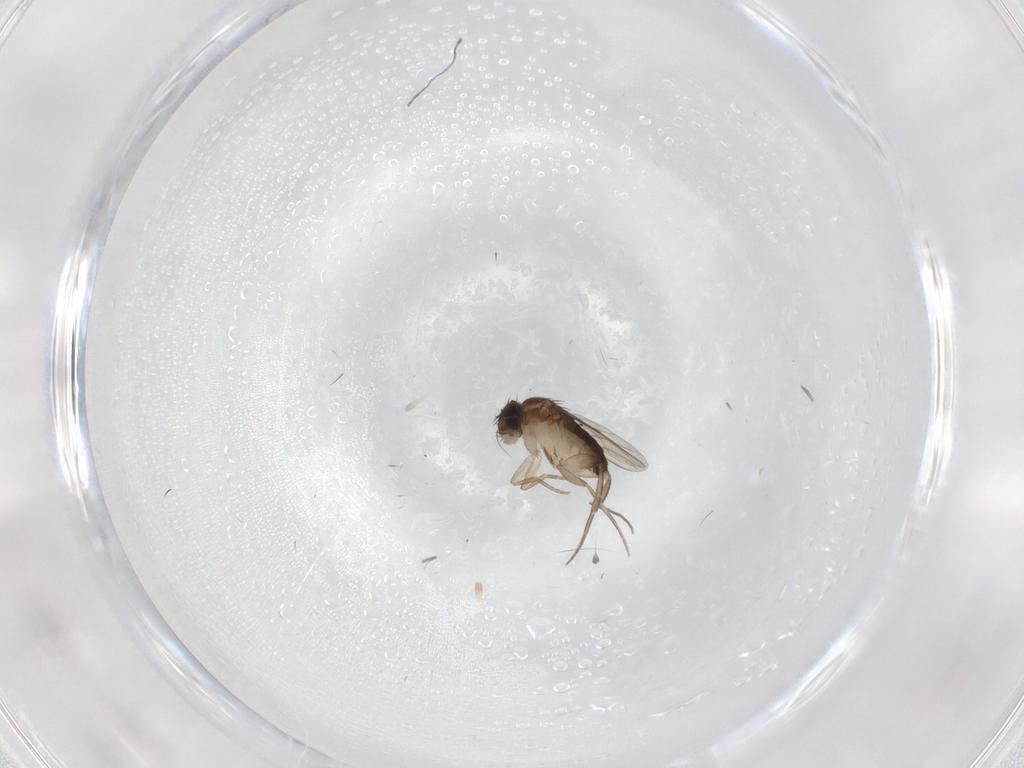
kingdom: Animalia
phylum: Arthropoda
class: Insecta
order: Diptera
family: Phoridae
